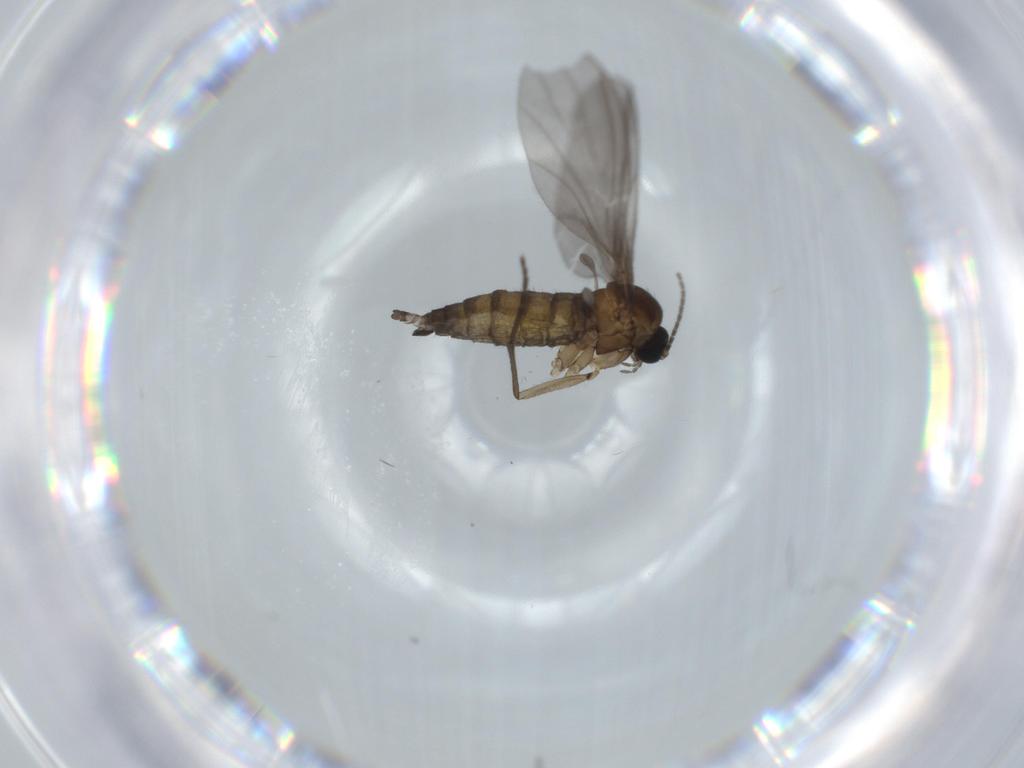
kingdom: Animalia
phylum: Arthropoda
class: Insecta
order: Diptera
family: Sciaridae
